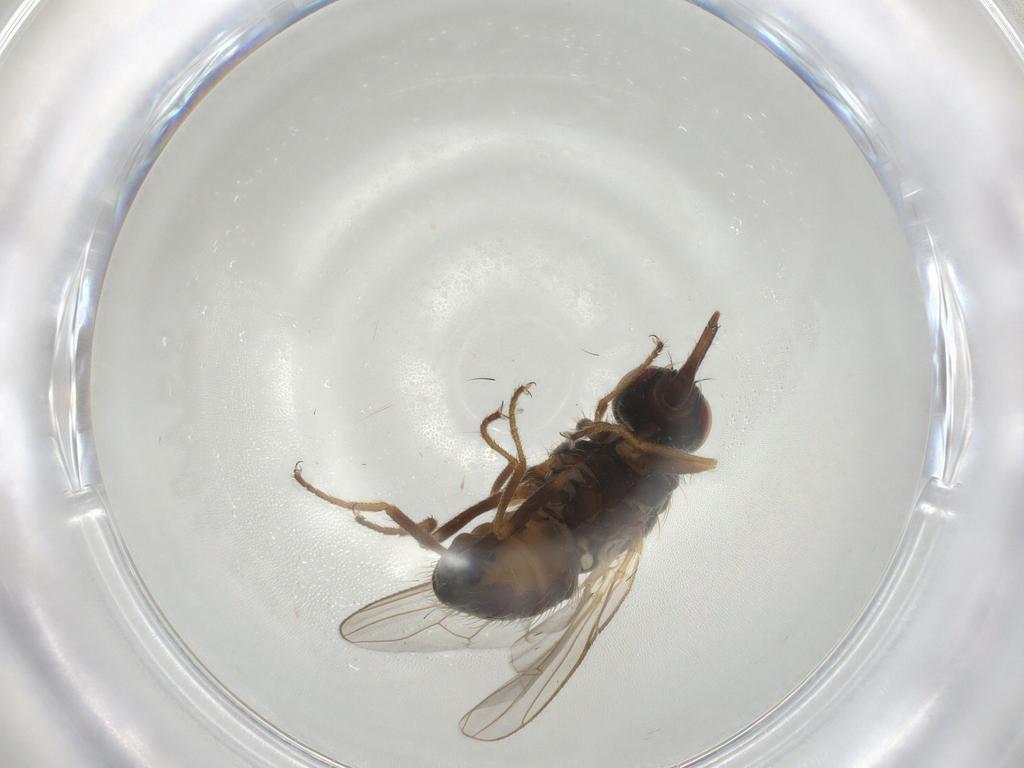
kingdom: Animalia
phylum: Arthropoda
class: Insecta
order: Diptera
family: Muscidae
